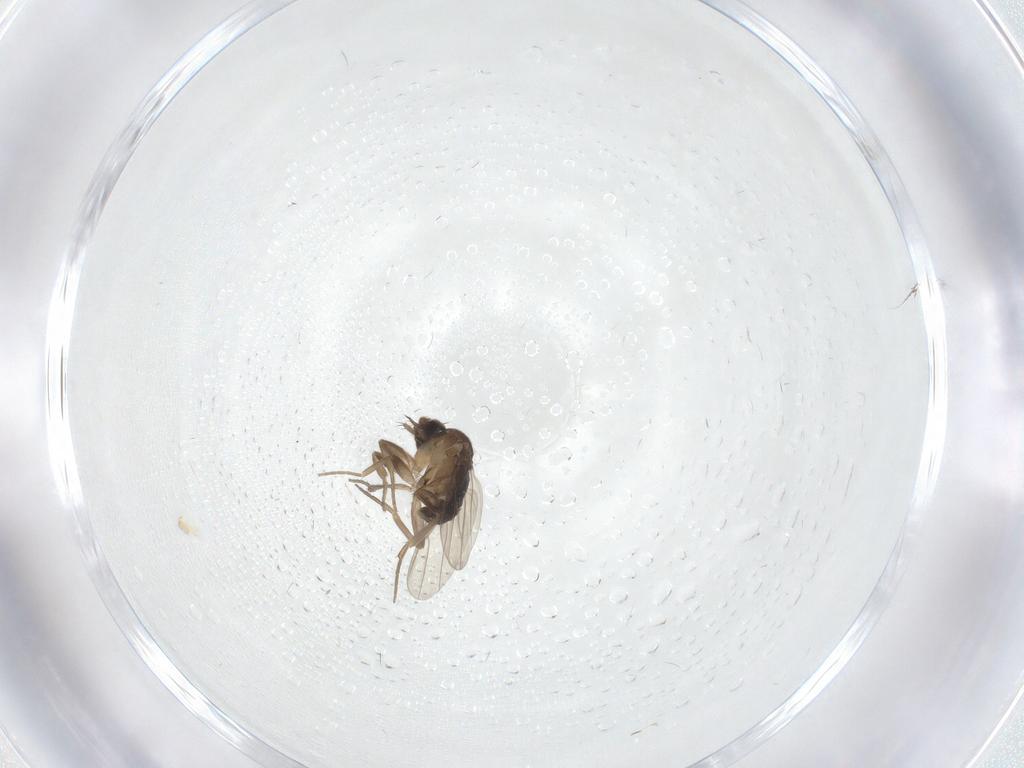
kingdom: Animalia
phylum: Arthropoda
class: Insecta
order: Diptera
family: Phoridae
